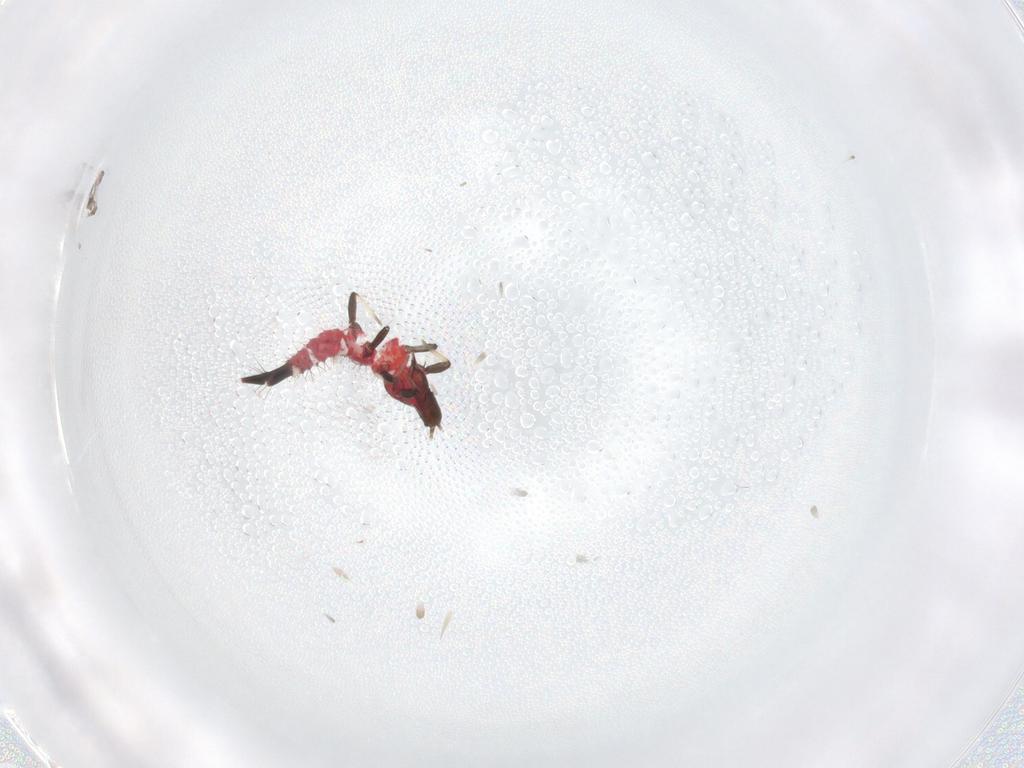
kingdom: Animalia
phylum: Arthropoda
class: Insecta
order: Thysanoptera
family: Phlaeothripidae
